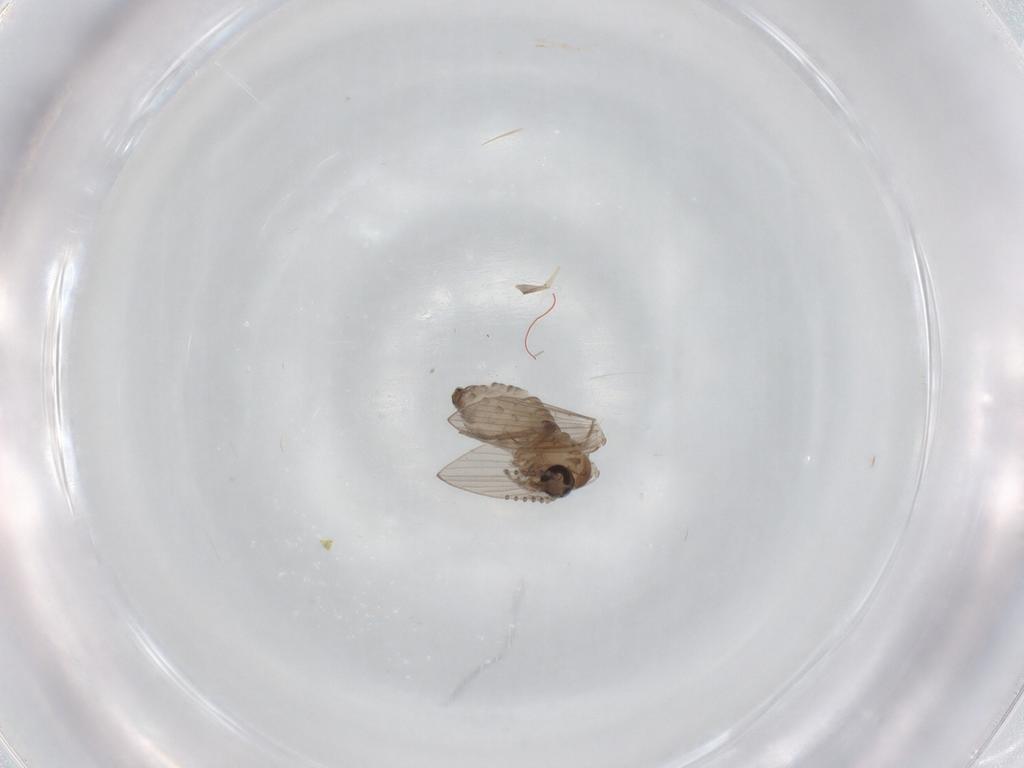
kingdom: Animalia
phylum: Arthropoda
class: Insecta
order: Diptera
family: Psychodidae
